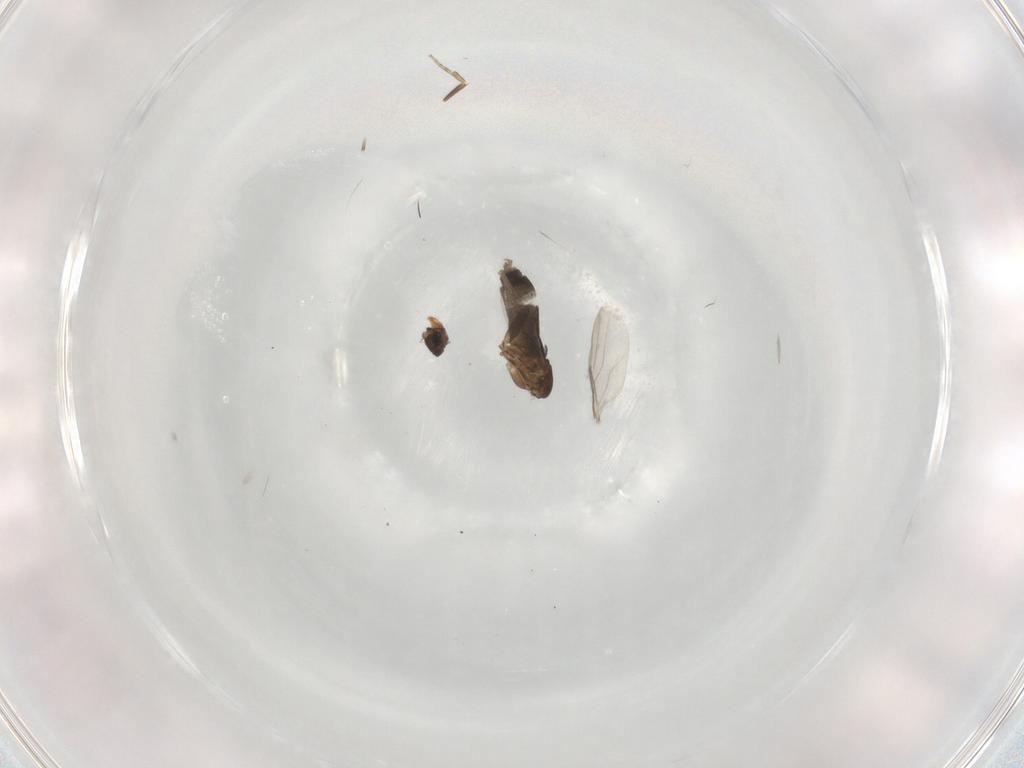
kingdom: Animalia
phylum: Arthropoda
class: Insecta
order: Diptera
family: Phoridae
